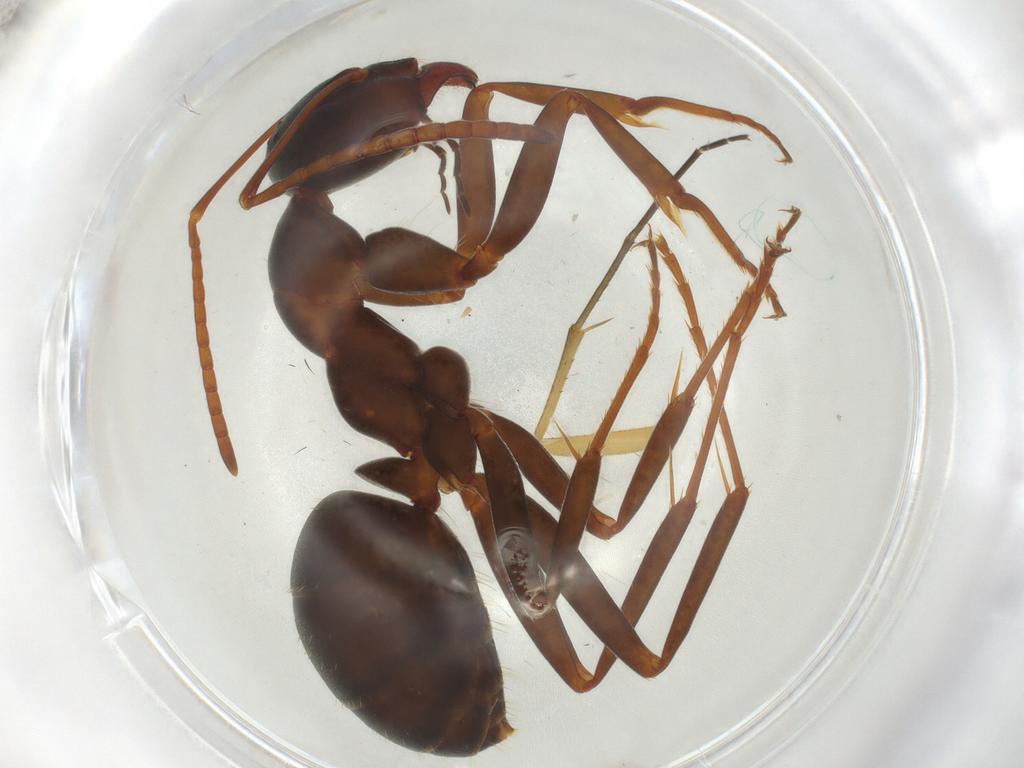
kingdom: Animalia
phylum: Arthropoda
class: Insecta
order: Hymenoptera
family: Formicidae
